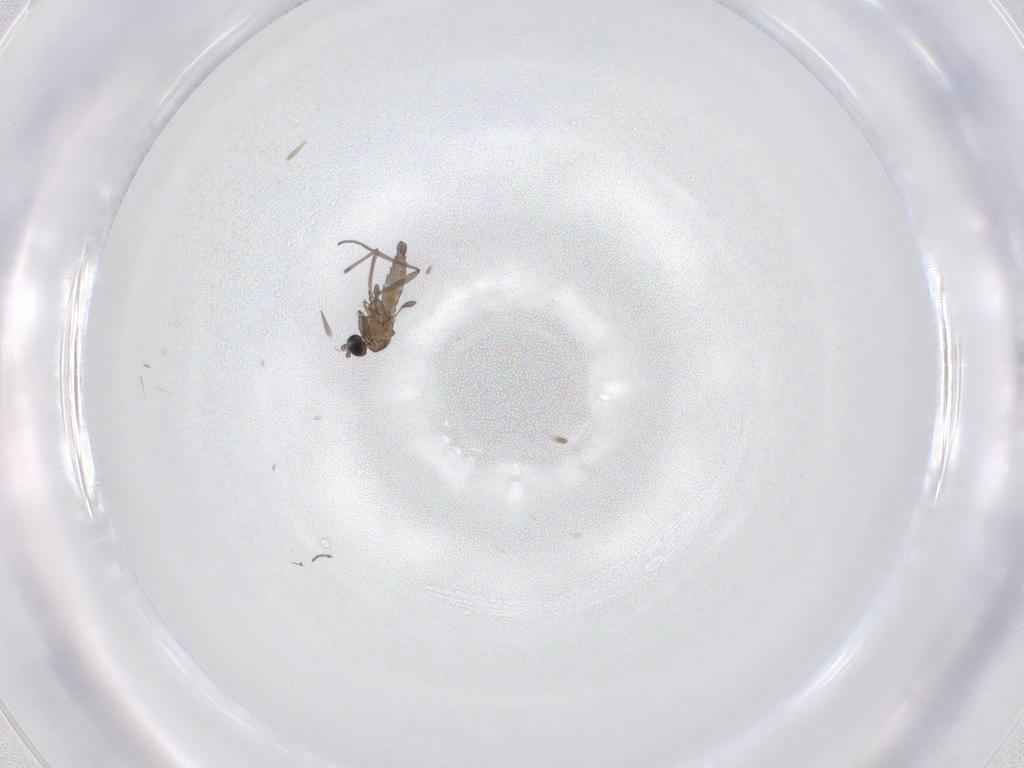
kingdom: Animalia
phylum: Arthropoda
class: Insecta
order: Diptera
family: Sciaridae
